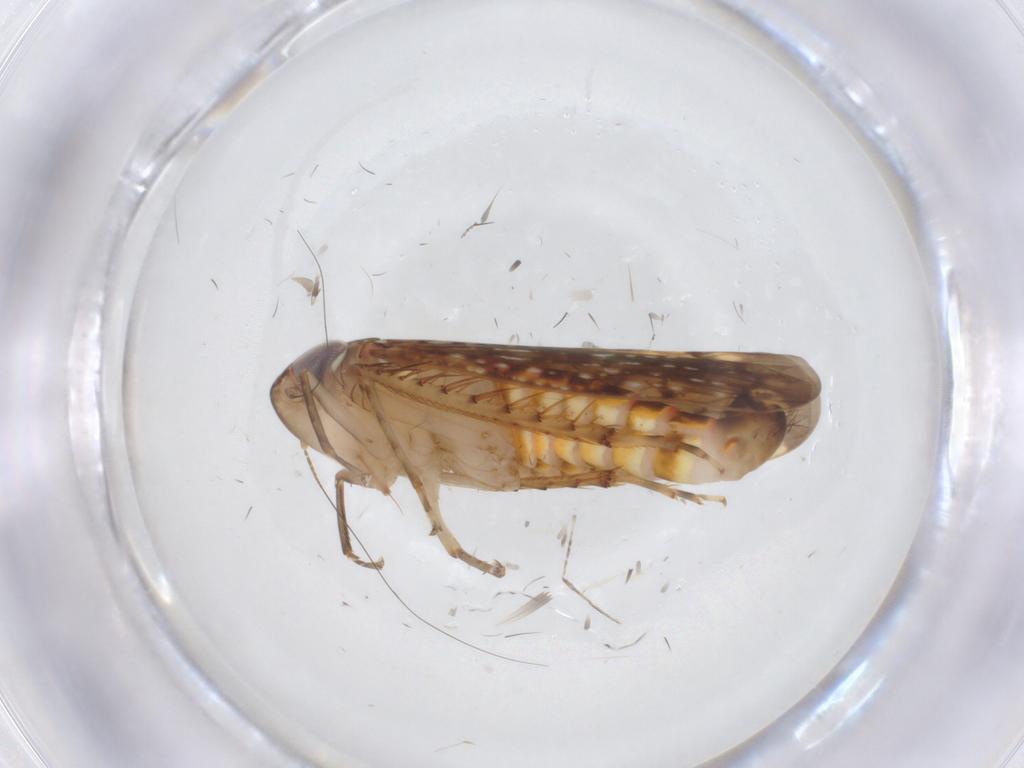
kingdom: Animalia
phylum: Arthropoda
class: Insecta
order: Hemiptera
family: Cicadellidae
